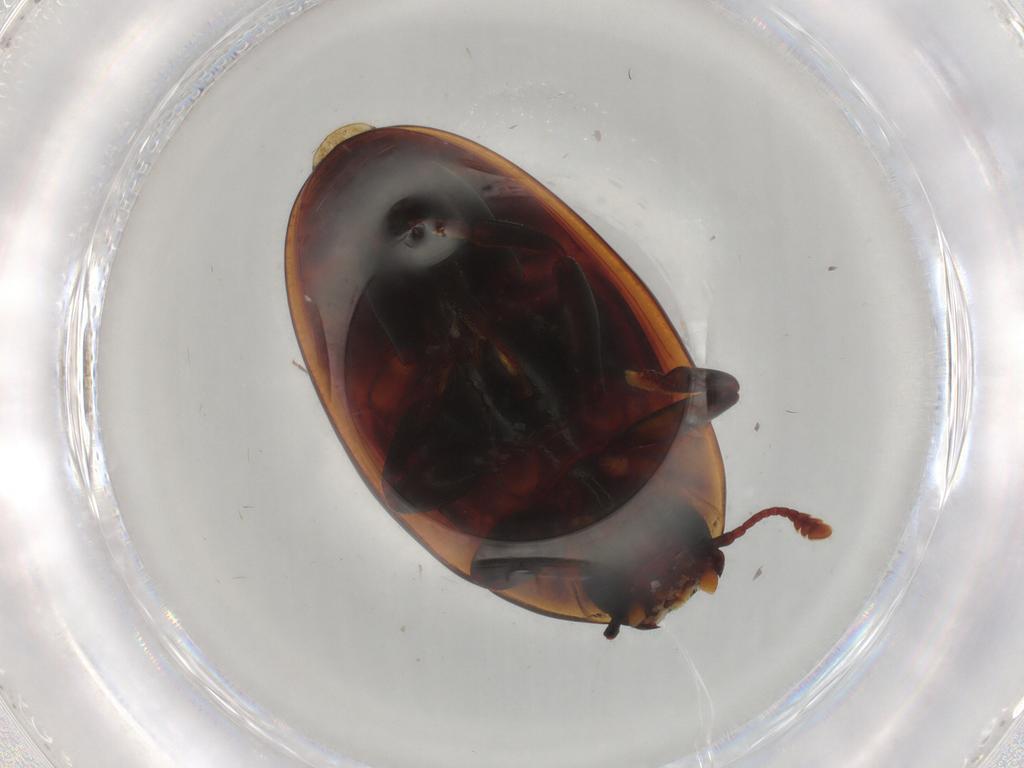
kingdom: Animalia
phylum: Arthropoda
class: Insecta
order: Coleoptera
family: Zopheridae
